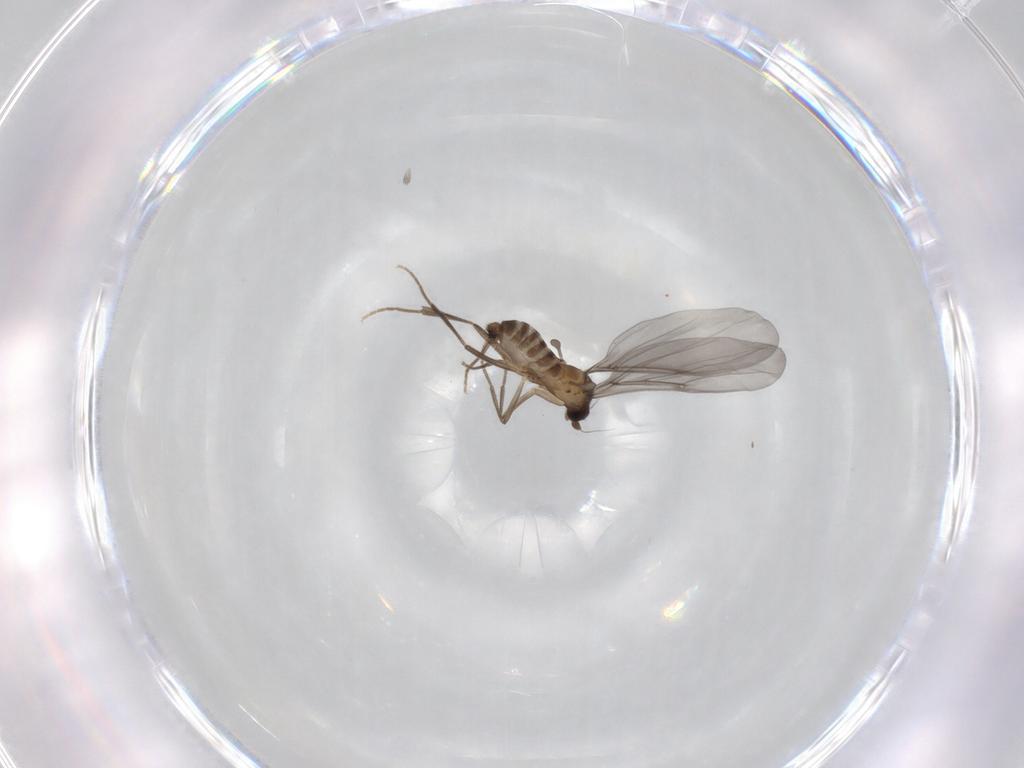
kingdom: Animalia
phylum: Arthropoda
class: Insecta
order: Diptera
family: Phoridae
